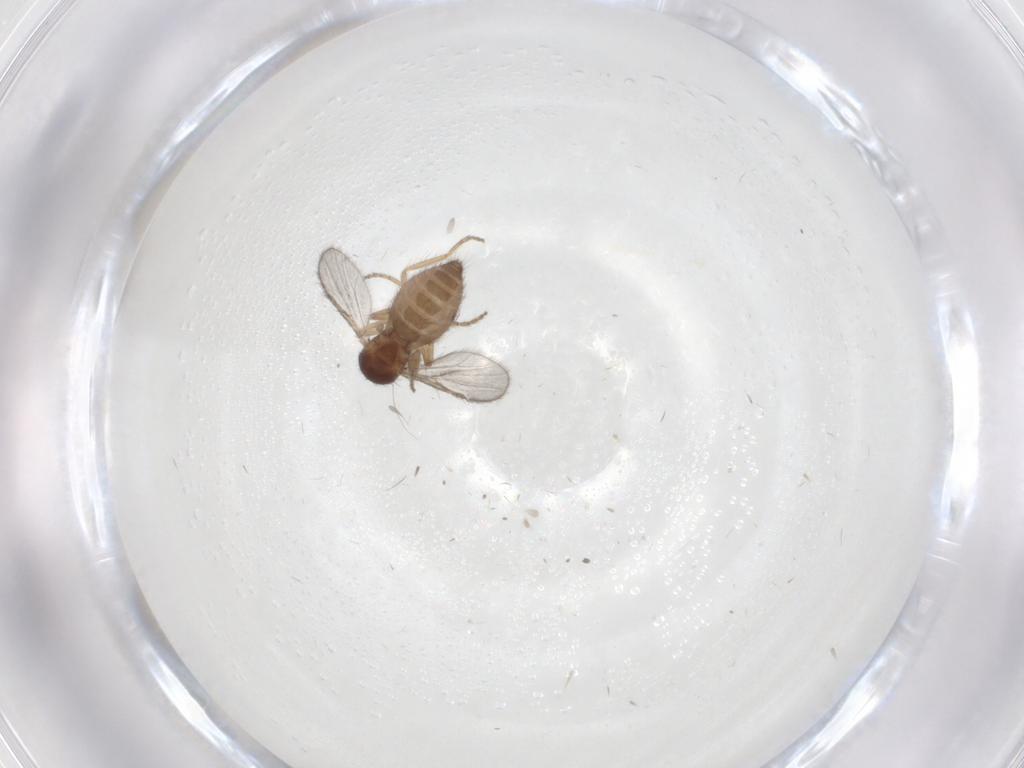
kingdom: Animalia
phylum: Arthropoda
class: Insecta
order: Diptera
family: Ceratopogonidae
